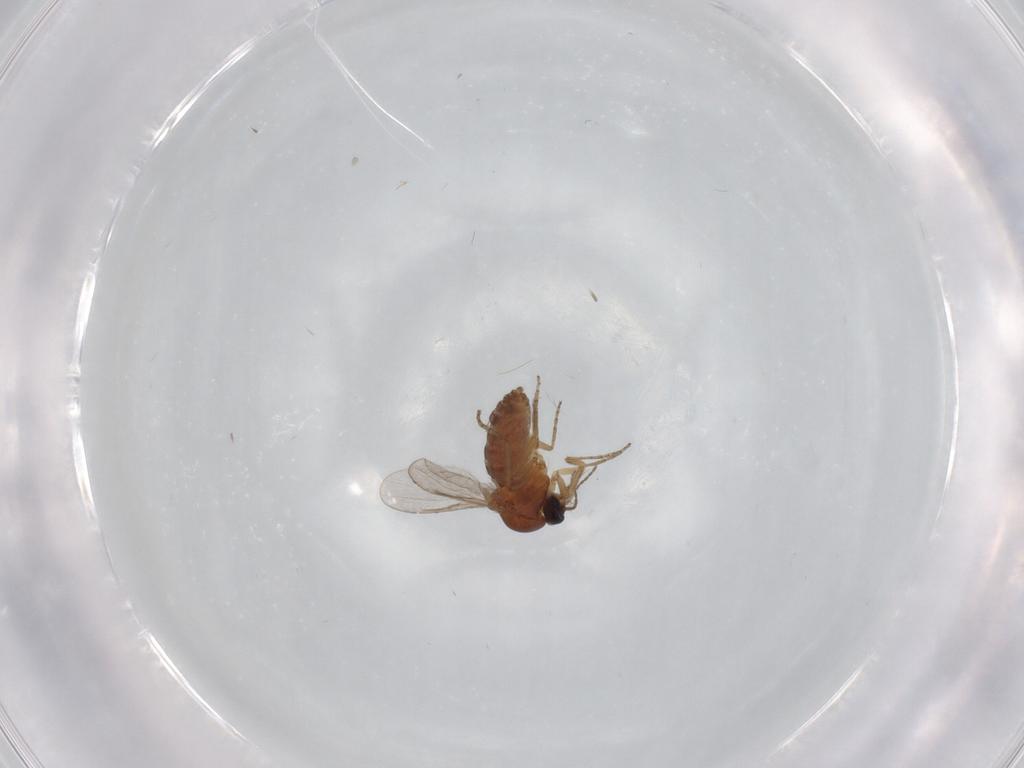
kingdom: Animalia
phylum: Arthropoda
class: Insecta
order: Diptera
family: Ceratopogonidae
